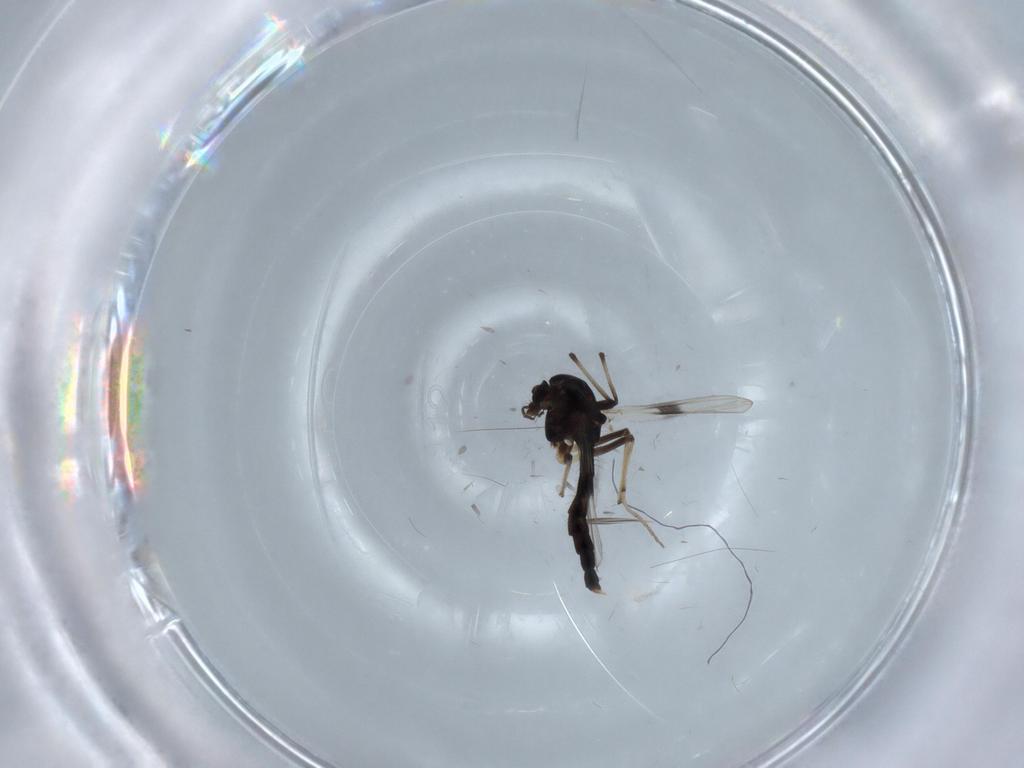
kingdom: Animalia
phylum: Arthropoda
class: Insecta
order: Diptera
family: Chironomidae
